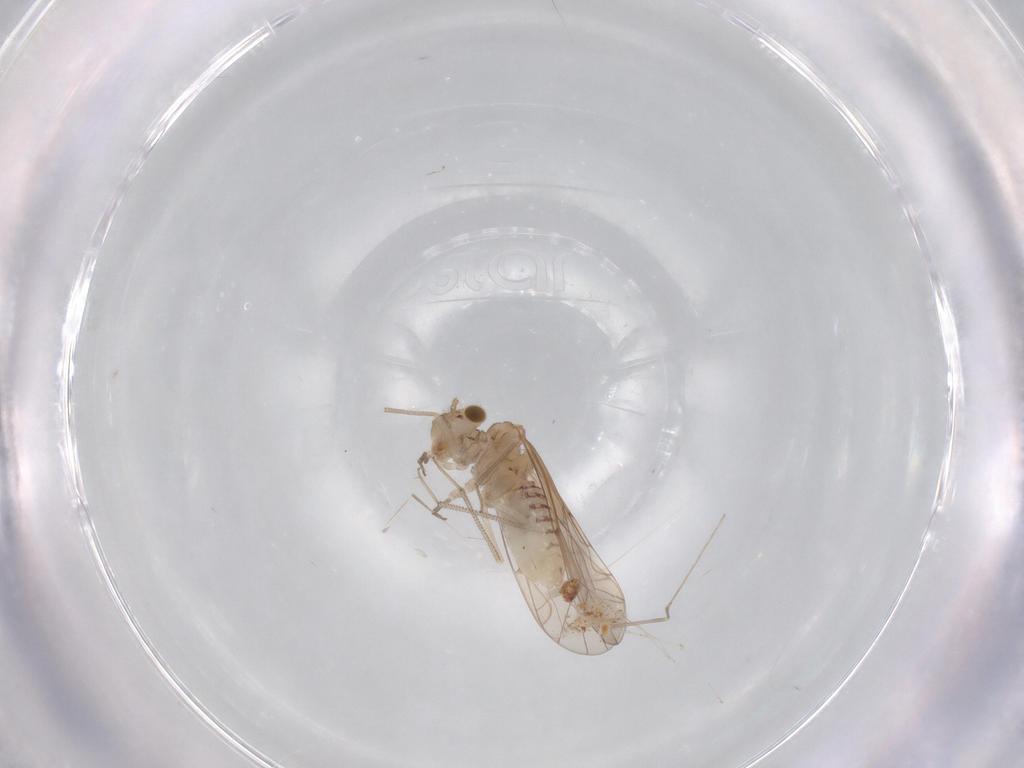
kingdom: Animalia
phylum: Arthropoda
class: Insecta
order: Psocodea
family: Lachesillidae
